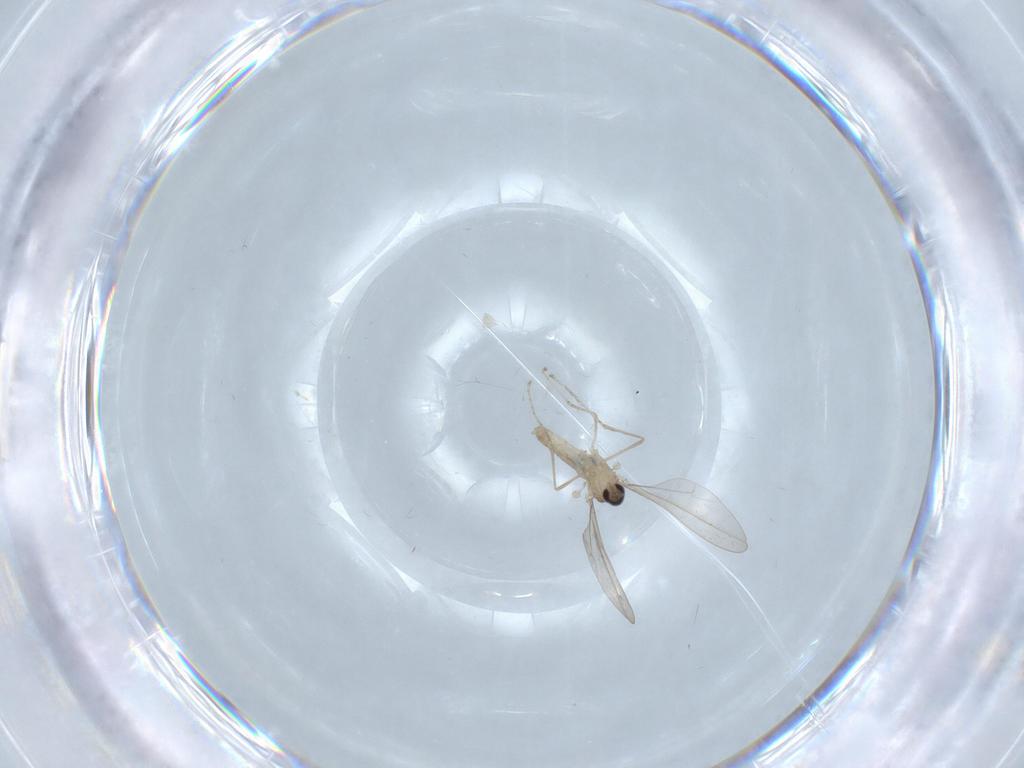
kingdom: Animalia
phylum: Arthropoda
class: Insecta
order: Diptera
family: Cecidomyiidae
